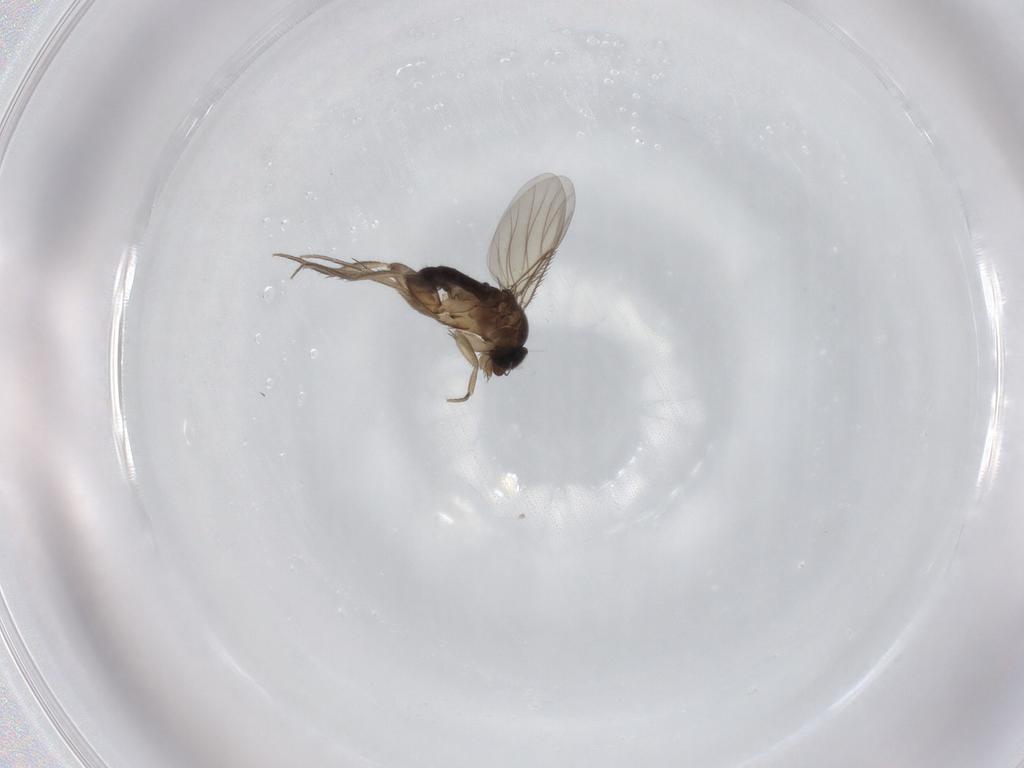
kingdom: Animalia
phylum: Arthropoda
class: Insecta
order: Diptera
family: Phoridae
